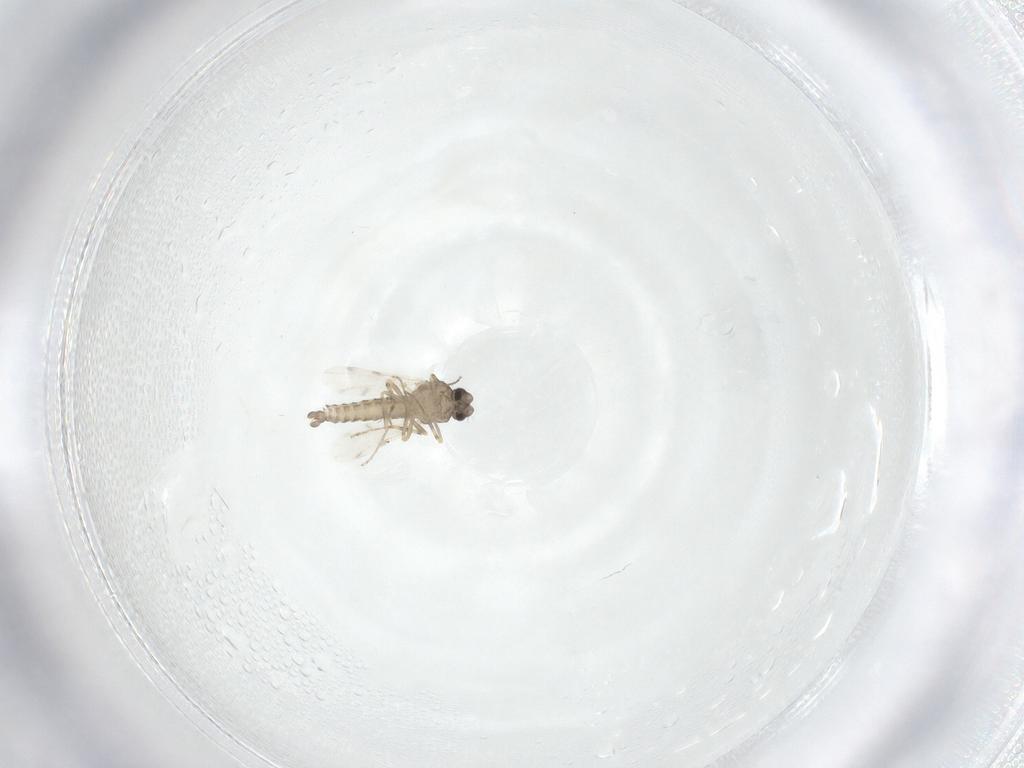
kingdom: Animalia
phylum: Arthropoda
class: Insecta
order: Diptera
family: Ceratopogonidae
